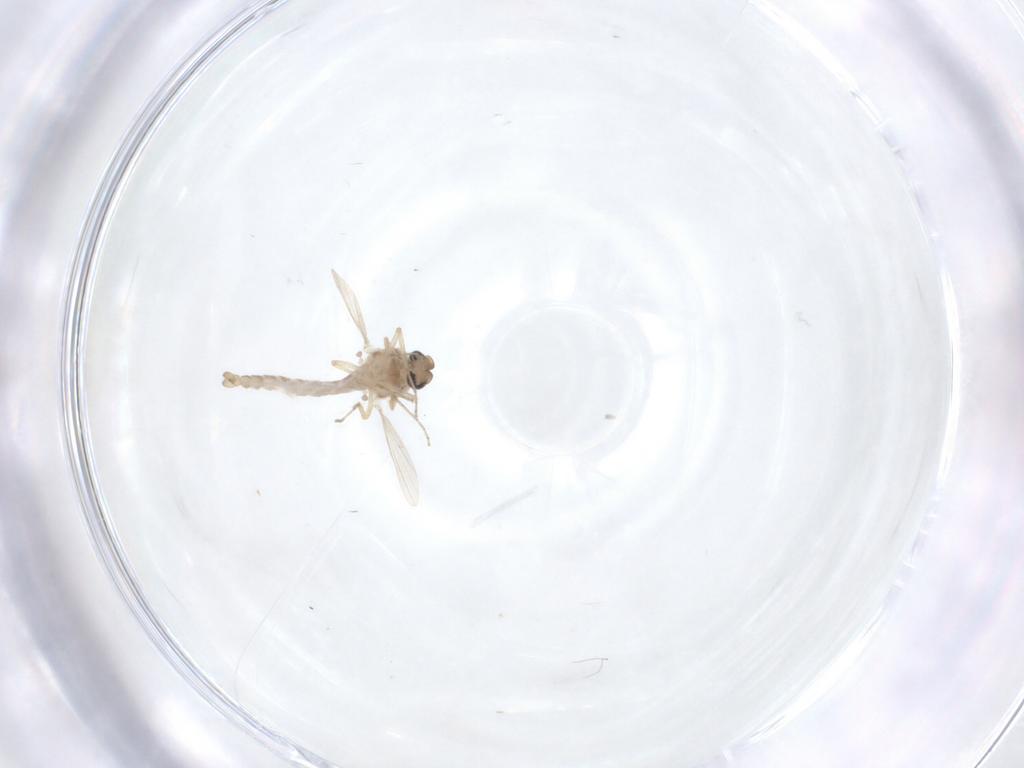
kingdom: Animalia
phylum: Arthropoda
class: Insecta
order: Diptera
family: Ceratopogonidae
